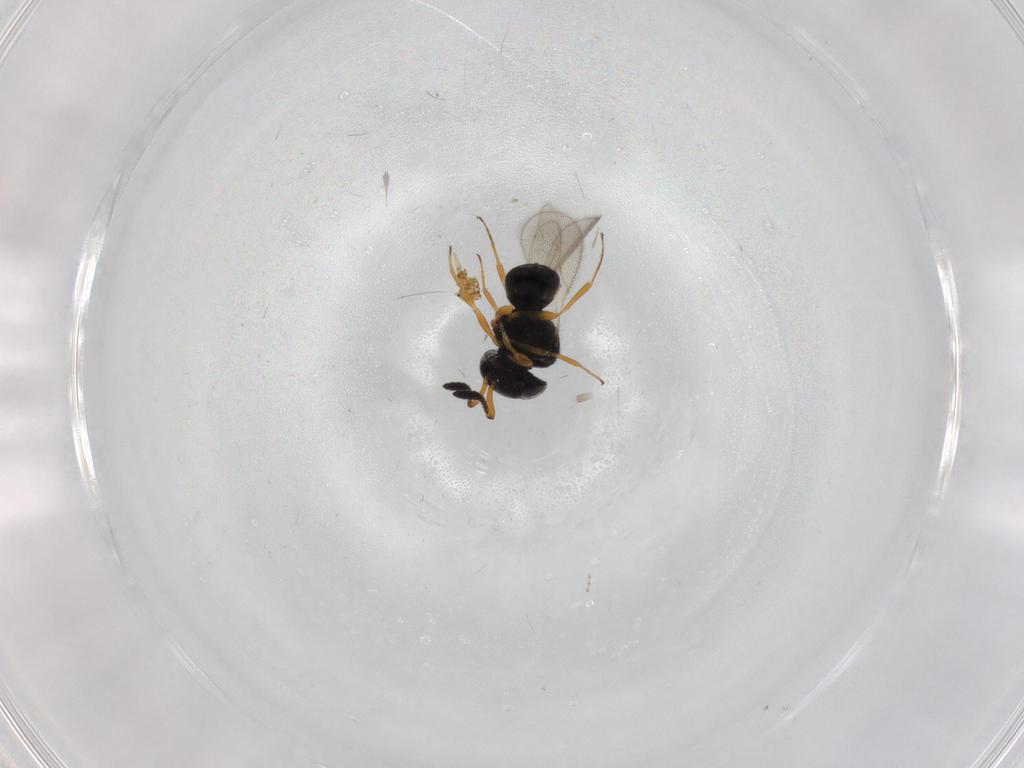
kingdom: Animalia
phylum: Arthropoda
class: Insecta
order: Hymenoptera
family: Scelionidae
